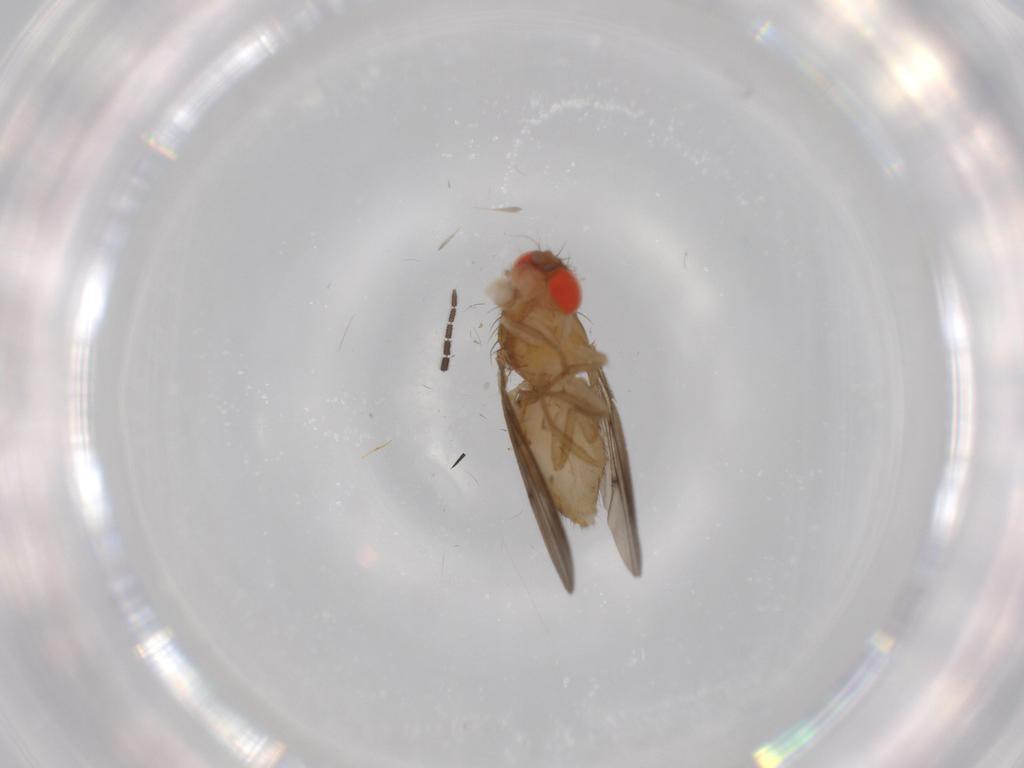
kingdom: Animalia
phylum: Arthropoda
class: Insecta
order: Diptera
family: Drosophilidae
